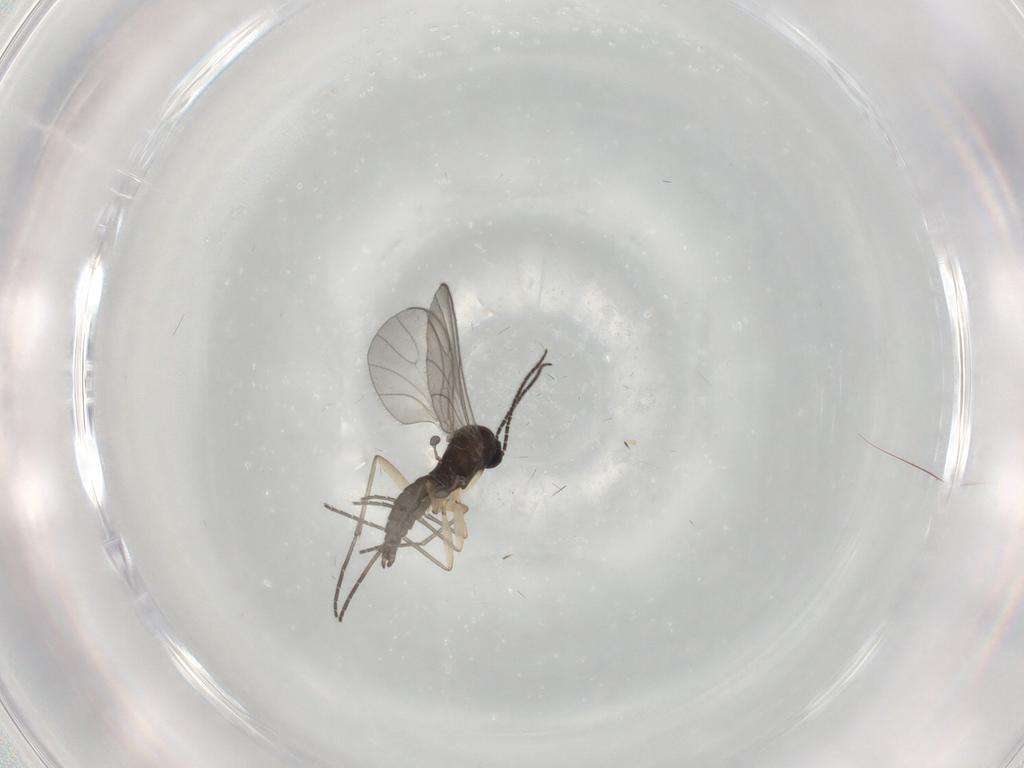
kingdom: Animalia
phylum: Arthropoda
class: Insecta
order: Diptera
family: Sciaridae
